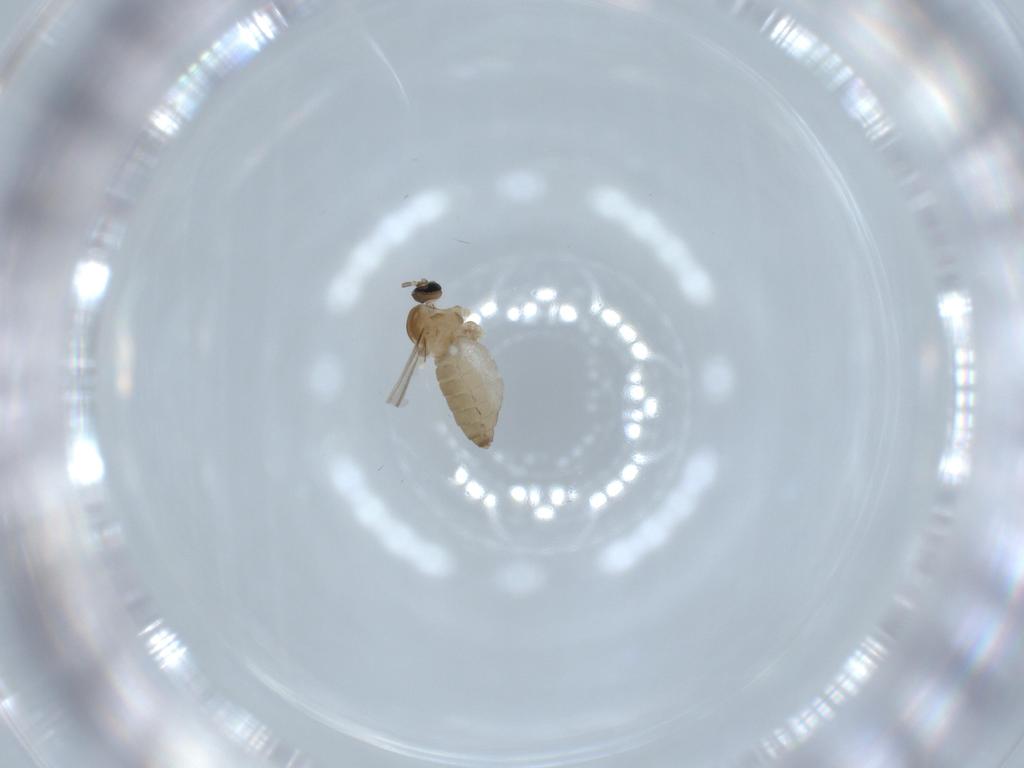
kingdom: Animalia
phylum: Arthropoda
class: Insecta
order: Diptera
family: Cecidomyiidae
